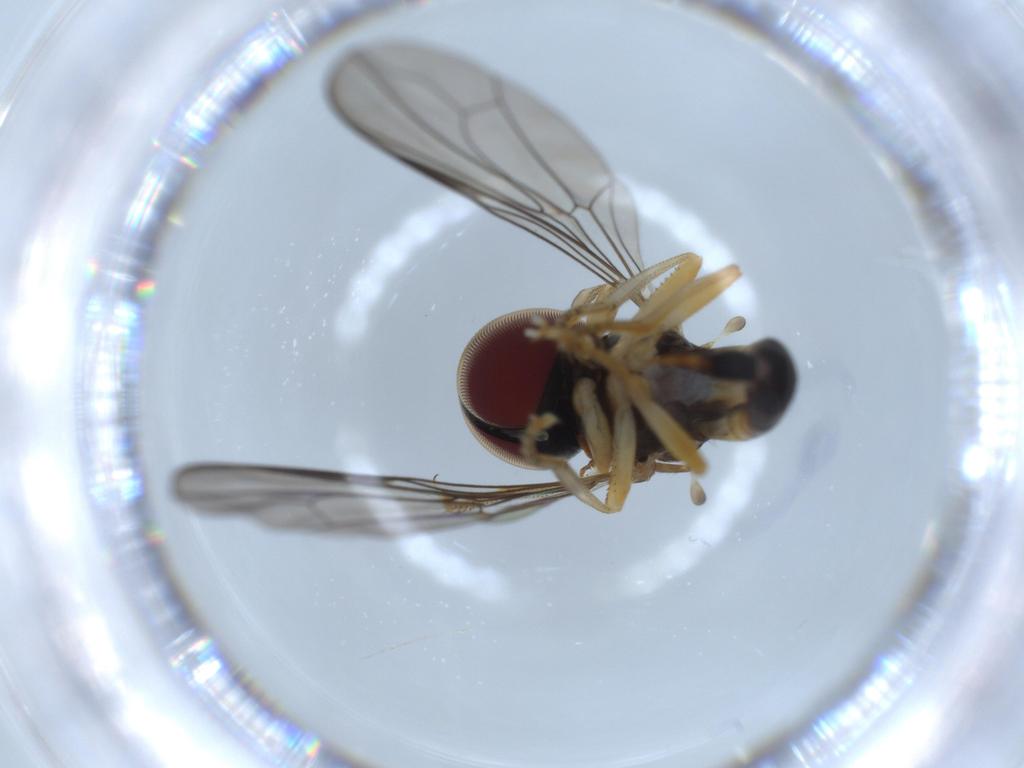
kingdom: Animalia
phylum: Arthropoda
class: Insecta
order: Diptera
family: Pipunculidae
